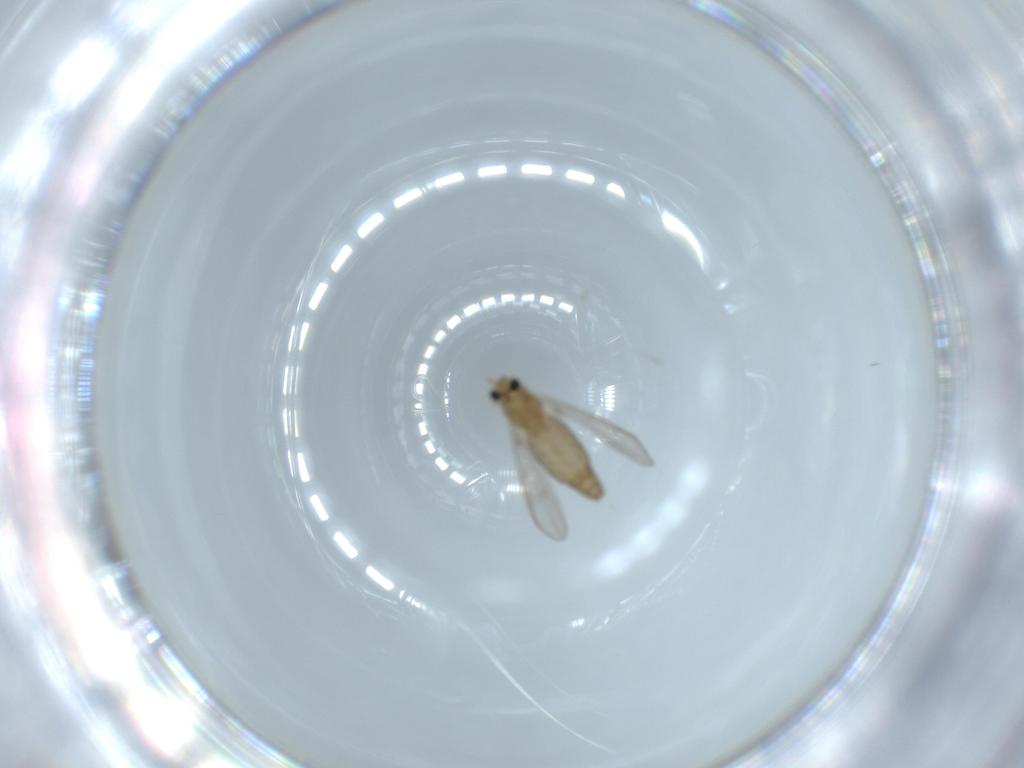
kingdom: Animalia
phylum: Arthropoda
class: Insecta
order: Diptera
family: Chironomidae
